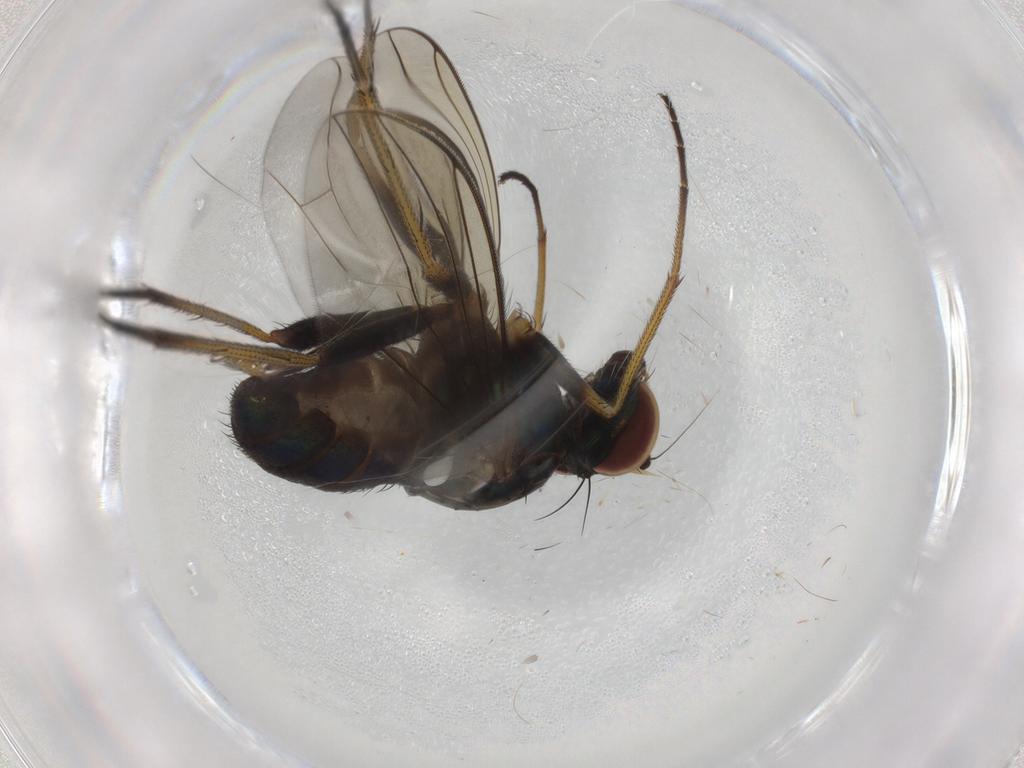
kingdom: Animalia
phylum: Arthropoda
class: Insecta
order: Diptera
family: Dolichopodidae
